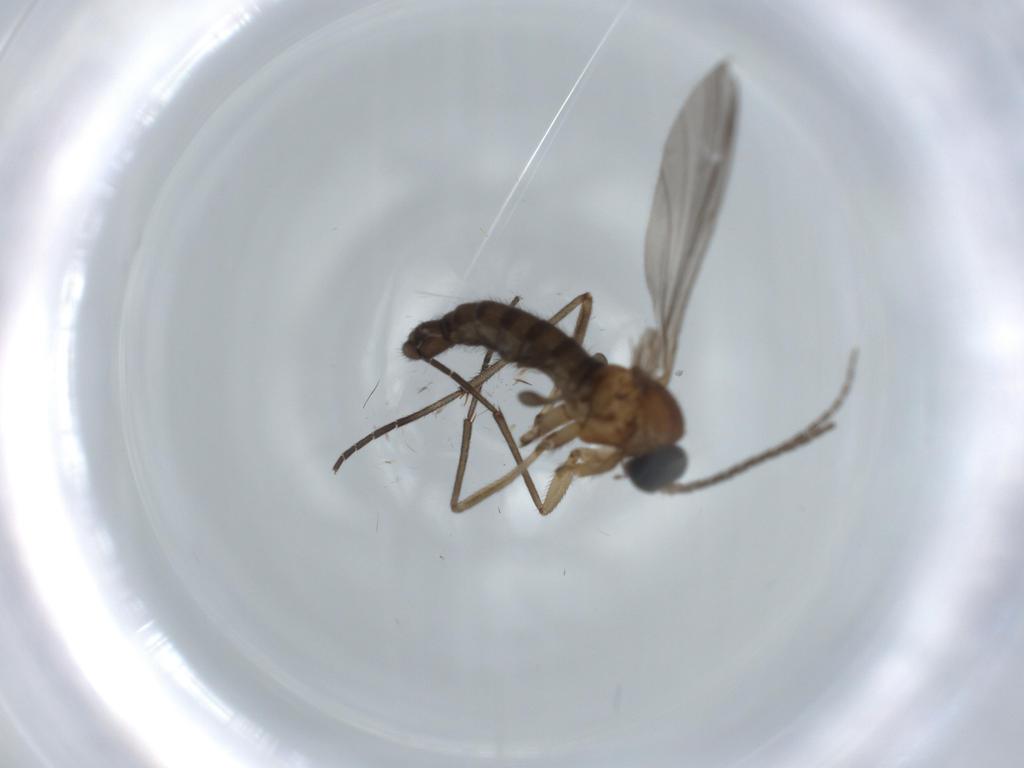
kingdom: Animalia
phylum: Arthropoda
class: Insecta
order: Diptera
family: Sciaridae
